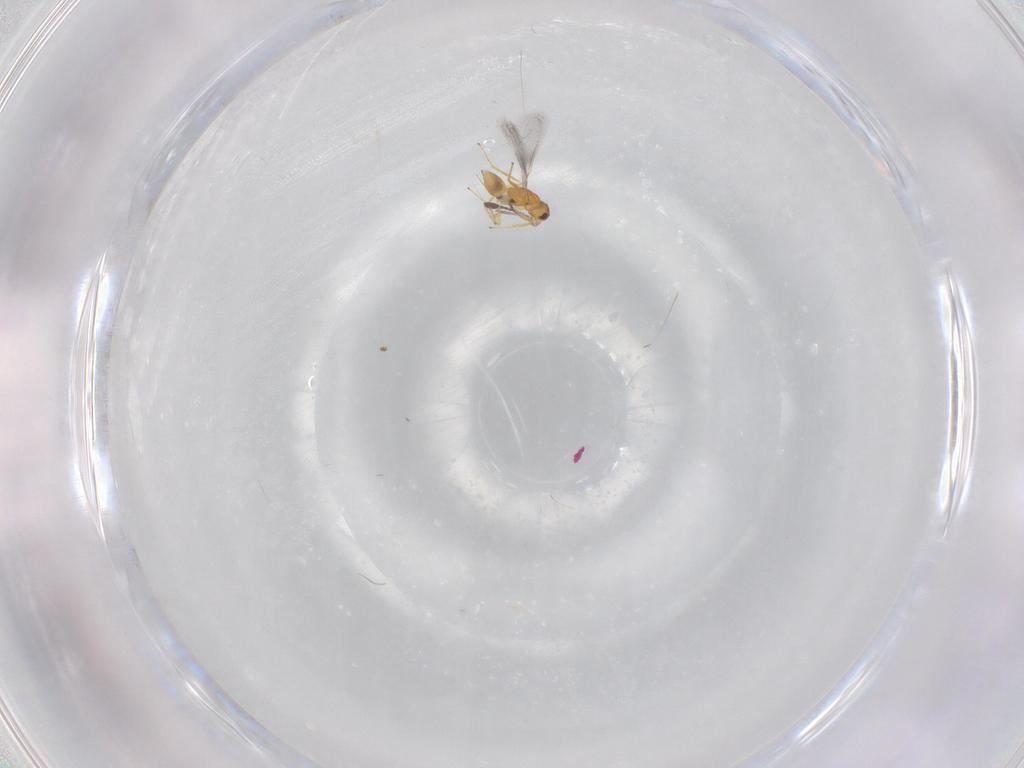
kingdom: Animalia
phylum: Arthropoda
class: Insecta
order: Hymenoptera
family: Mymaridae
